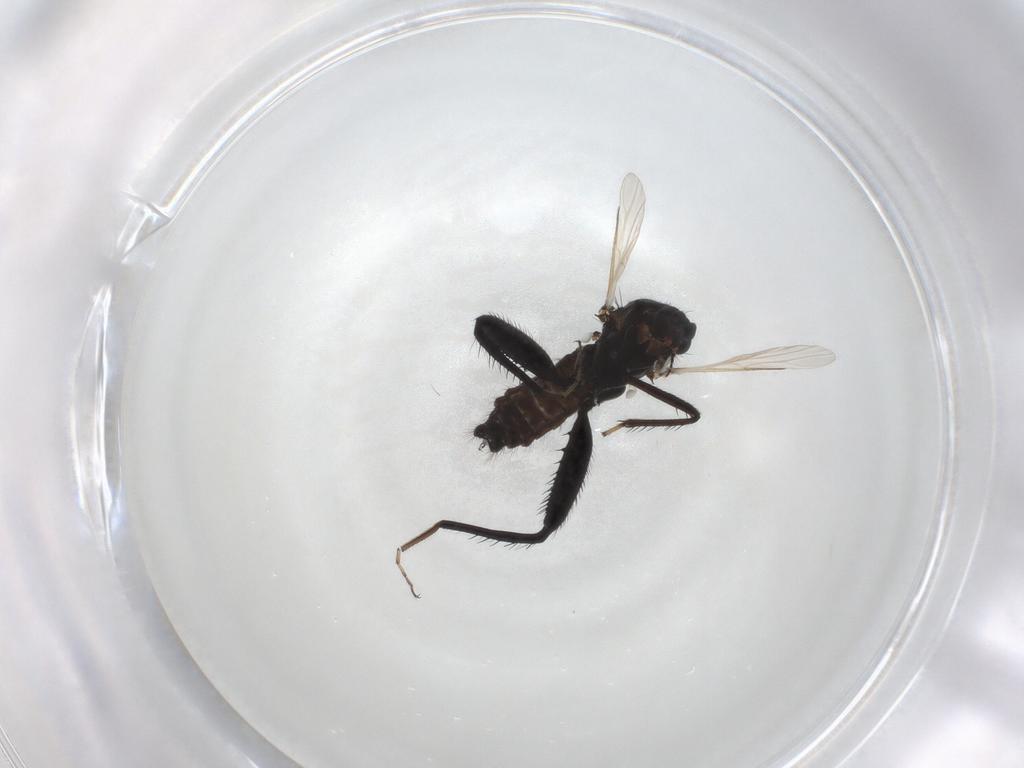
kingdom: Animalia
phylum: Arthropoda
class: Insecta
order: Diptera
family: Ceratopogonidae
